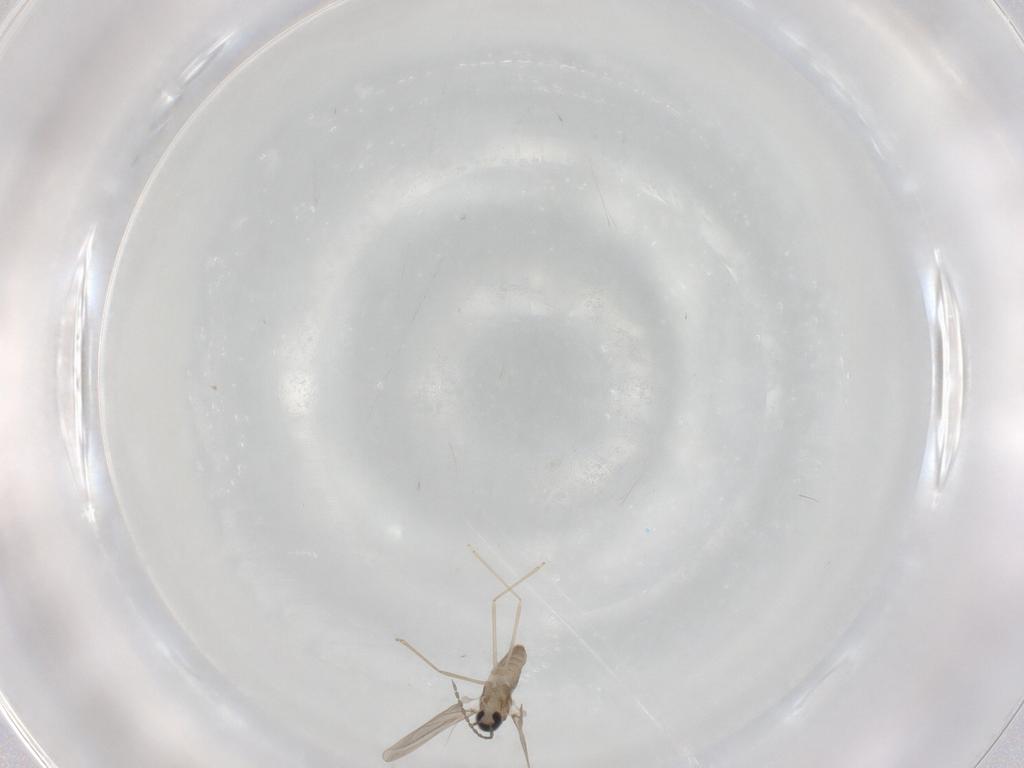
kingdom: Animalia
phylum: Arthropoda
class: Insecta
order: Diptera
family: Cecidomyiidae
